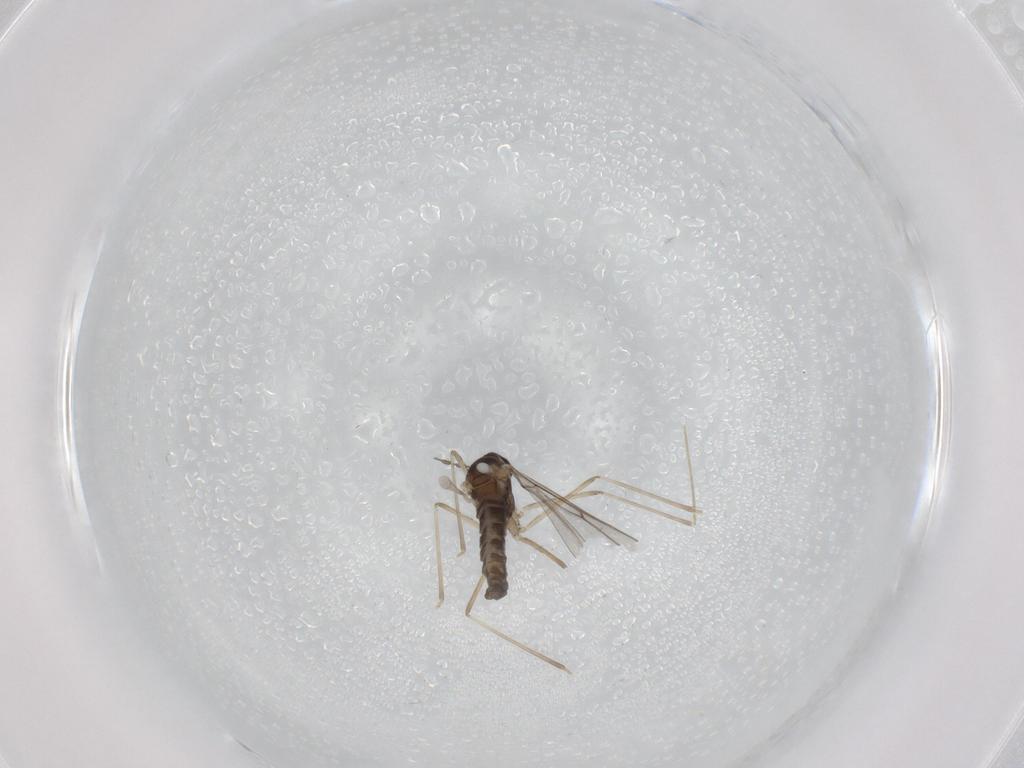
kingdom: Animalia
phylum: Arthropoda
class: Insecta
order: Diptera
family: Cecidomyiidae
